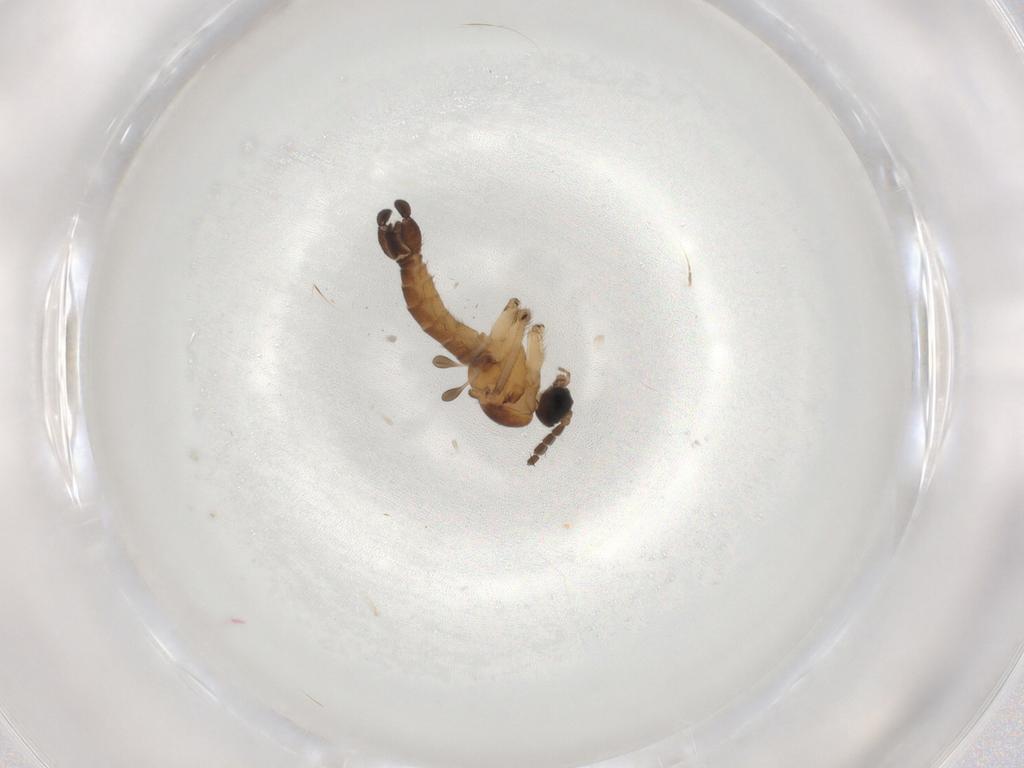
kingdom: Animalia
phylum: Arthropoda
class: Insecta
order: Diptera
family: Sciaridae
